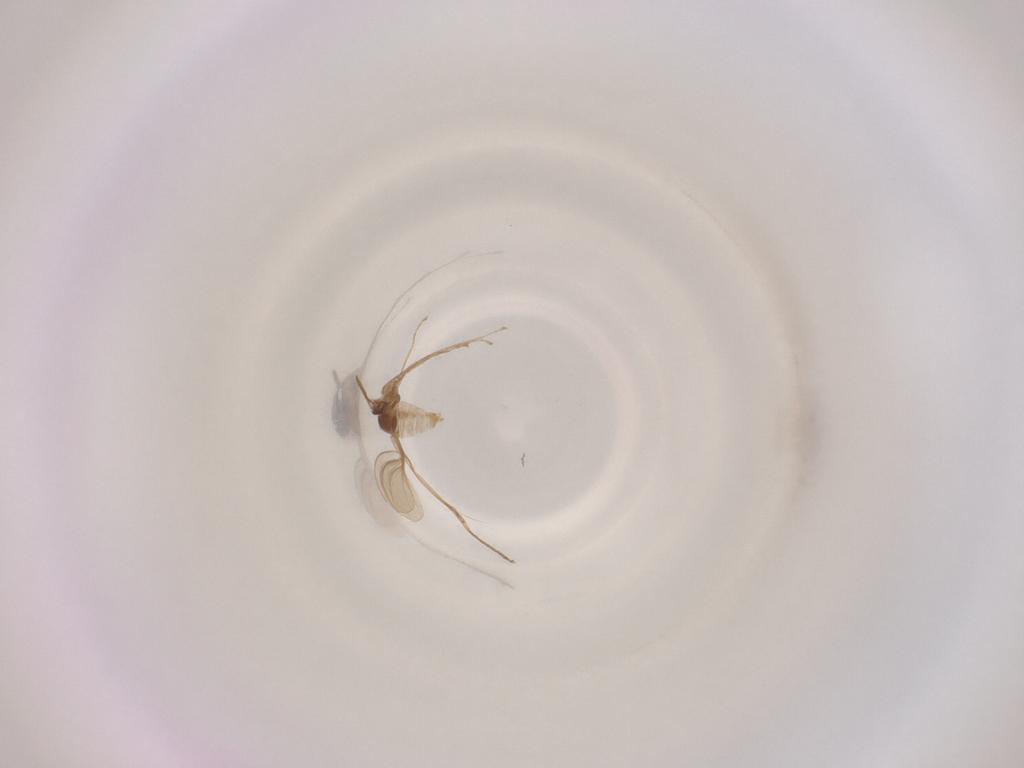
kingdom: Animalia
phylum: Arthropoda
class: Insecta
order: Diptera
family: Cecidomyiidae
